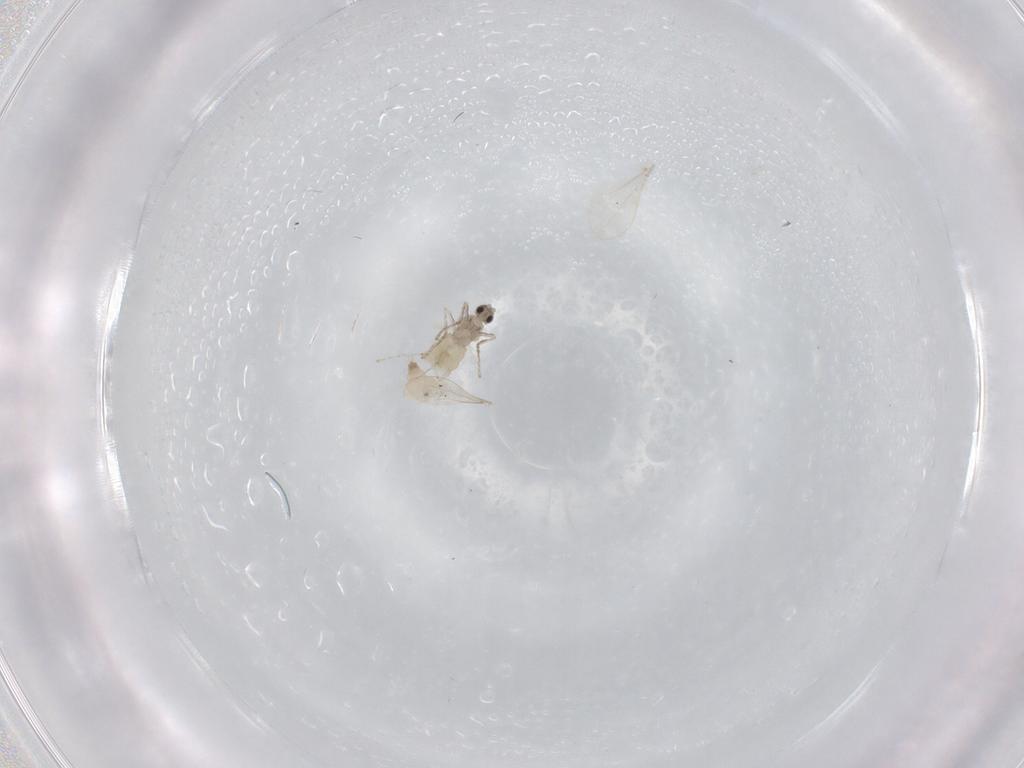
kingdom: Animalia
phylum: Arthropoda
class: Insecta
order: Diptera
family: Cecidomyiidae
